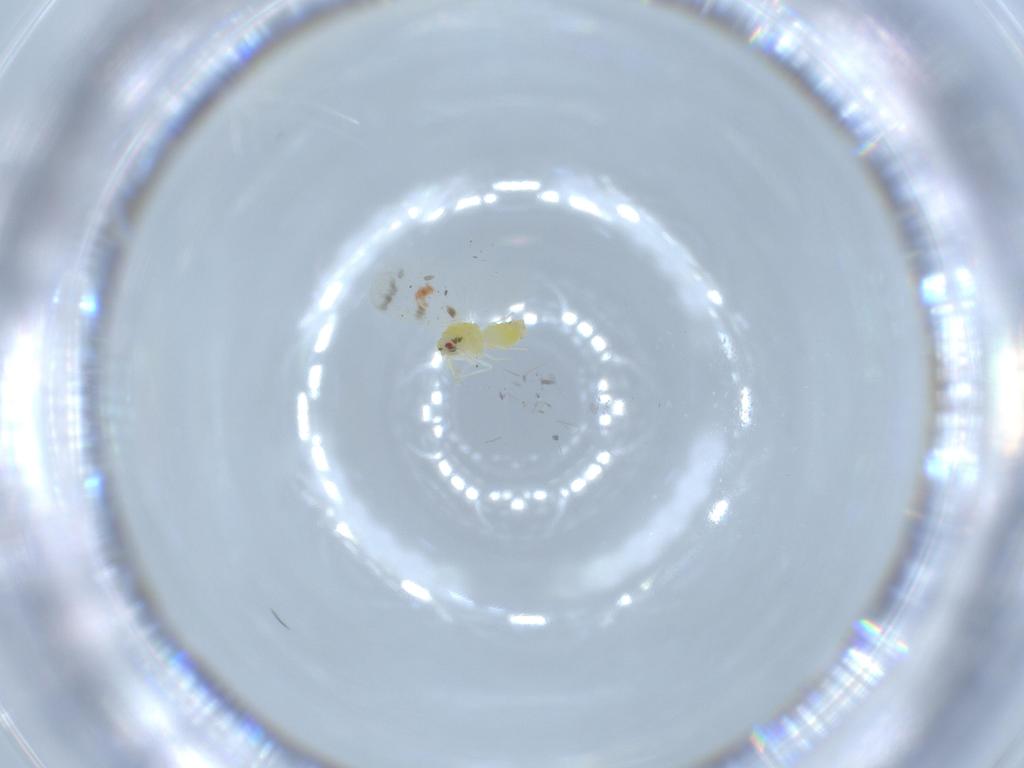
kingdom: Animalia
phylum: Arthropoda
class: Insecta
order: Hemiptera
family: Aleyrodidae
